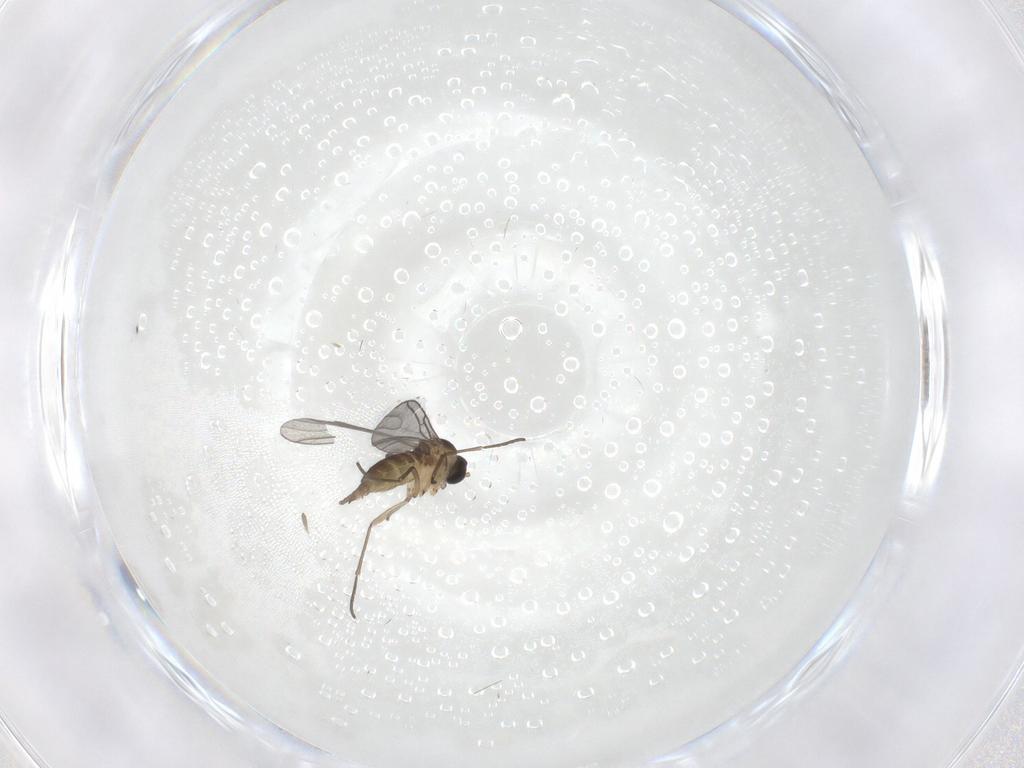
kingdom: Animalia
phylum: Arthropoda
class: Insecta
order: Diptera
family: Sciaridae
